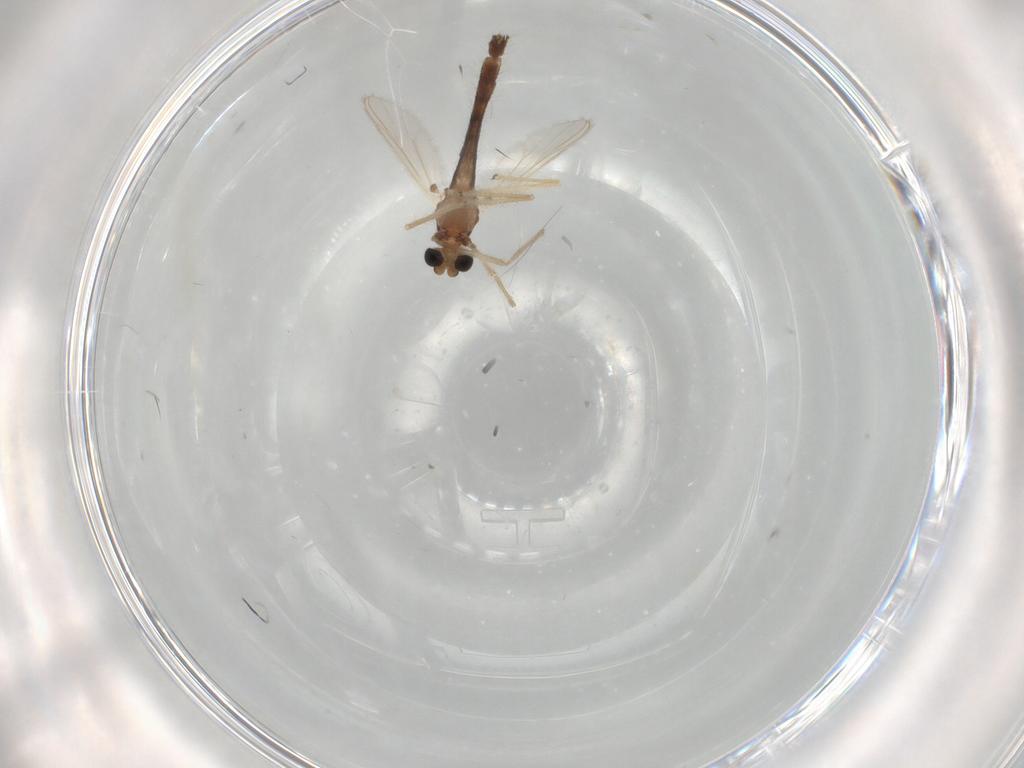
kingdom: Animalia
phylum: Arthropoda
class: Insecta
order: Diptera
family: Chironomidae
